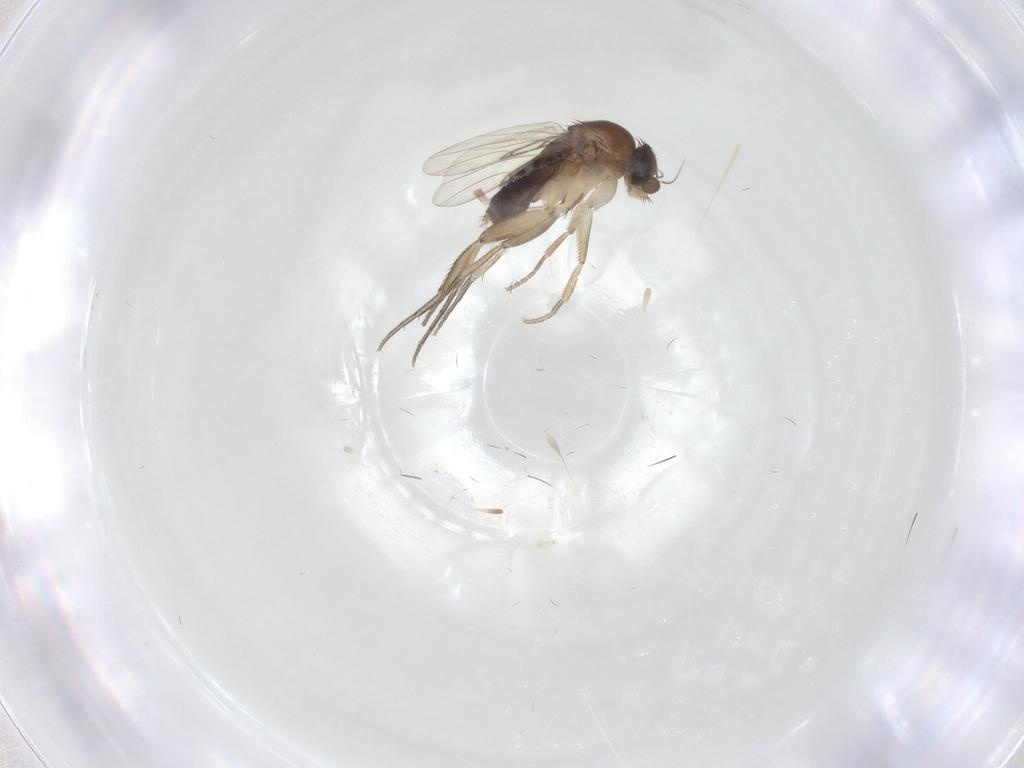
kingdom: Animalia
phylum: Arthropoda
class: Insecta
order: Diptera
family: Phoridae
